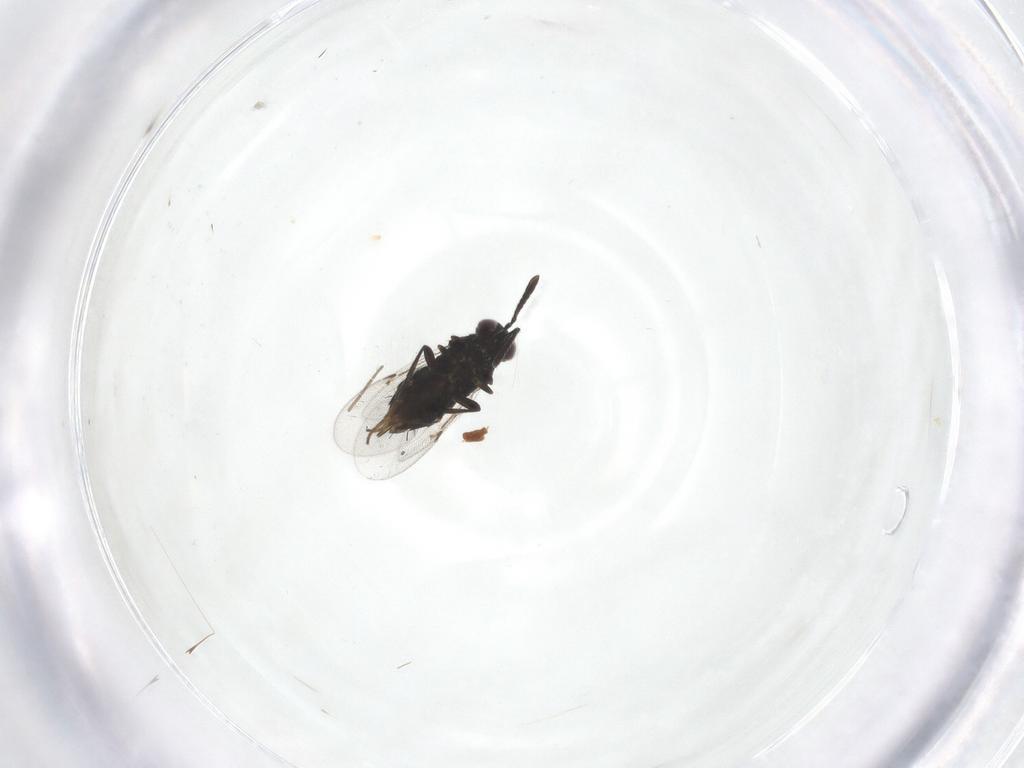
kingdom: Animalia
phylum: Arthropoda
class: Insecta
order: Hymenoptera
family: Encyrtidae
